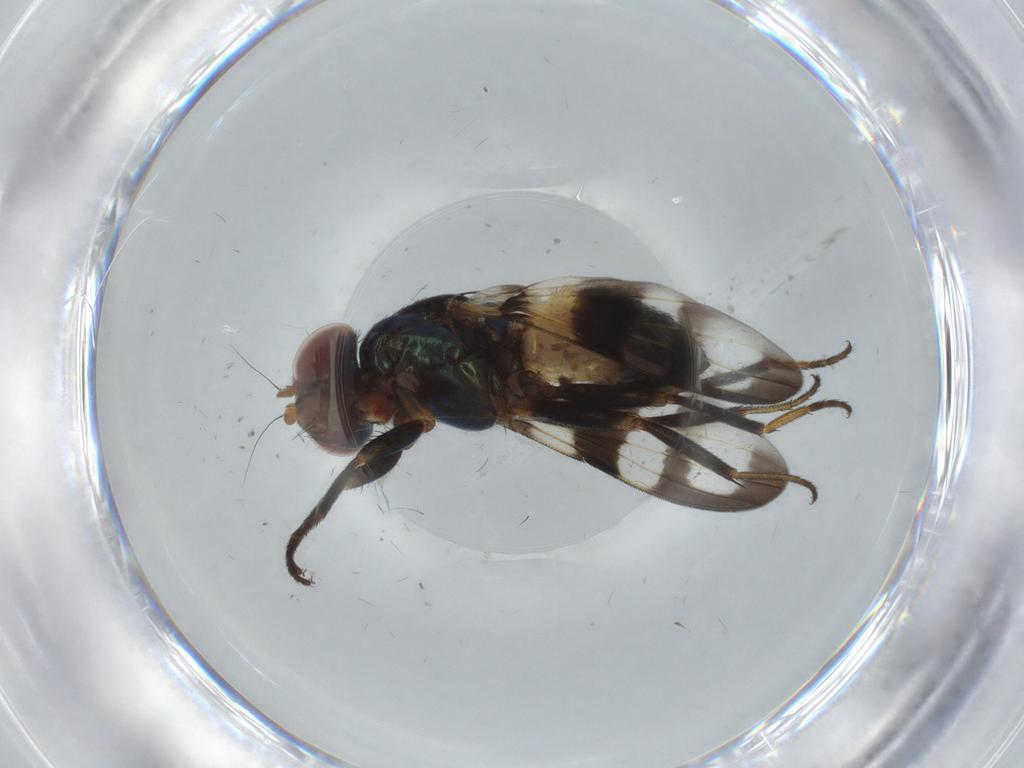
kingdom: Animalia
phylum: Arthropoda
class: Insecta
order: Diptera
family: Ulidiidae
